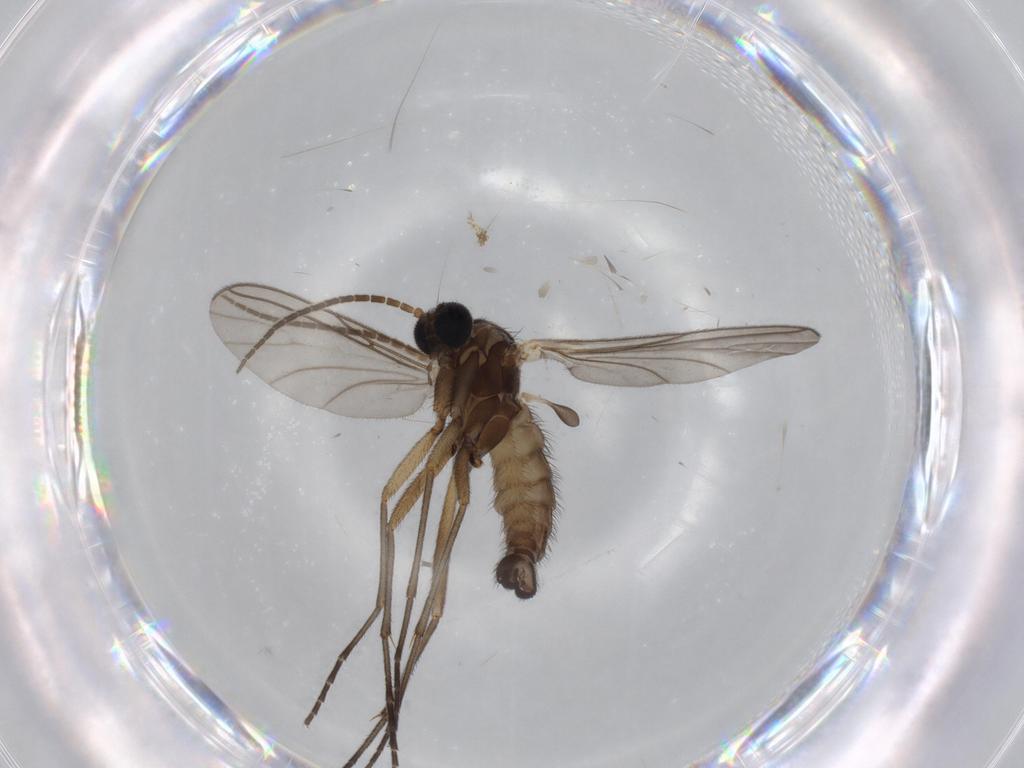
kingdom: Animalia
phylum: Arthropoda
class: Insecta
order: Diptera
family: Sciaridae
